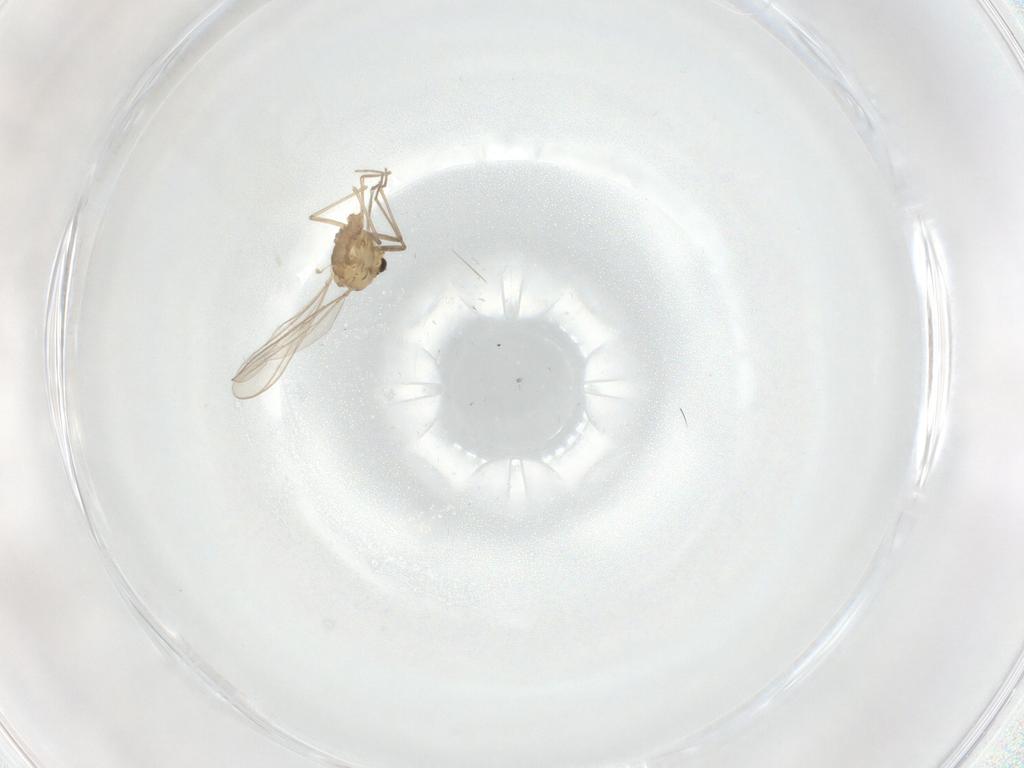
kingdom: Animalia
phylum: Arthropoda
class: Insecta
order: Diptera
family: Chironomidae
